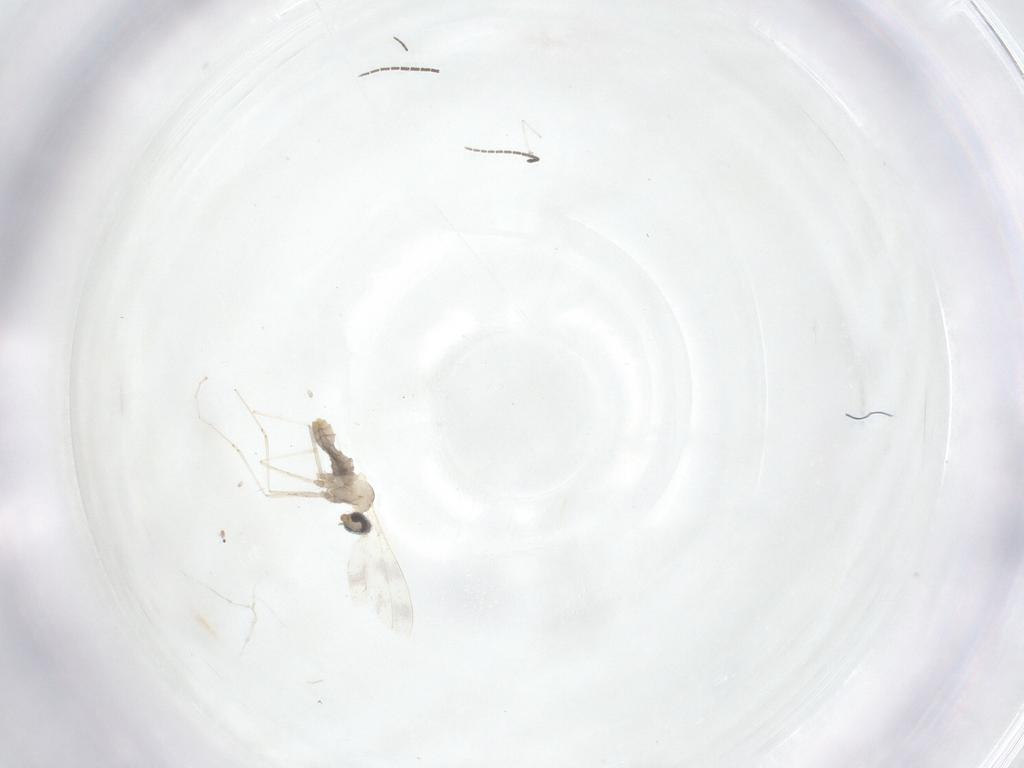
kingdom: Animalia
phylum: Arthropoda
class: Insecta
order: Diptera
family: Sciaridae
